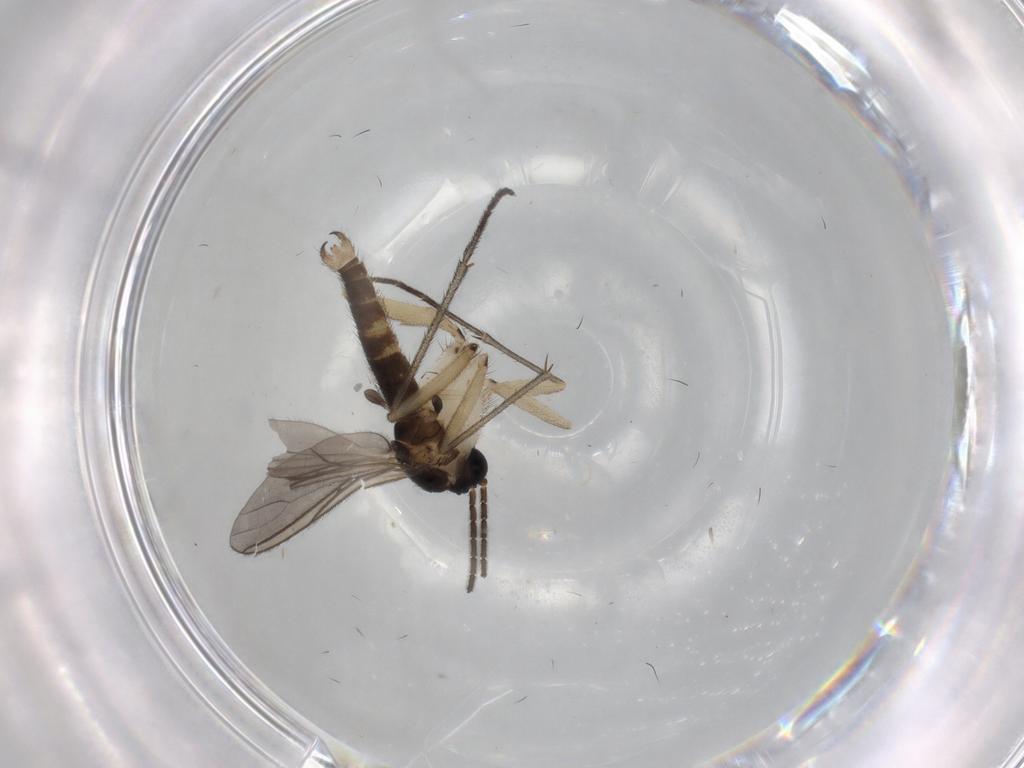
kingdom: Animalia
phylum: Arthropoda
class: Insecta
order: Diptera
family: Sciaridae
